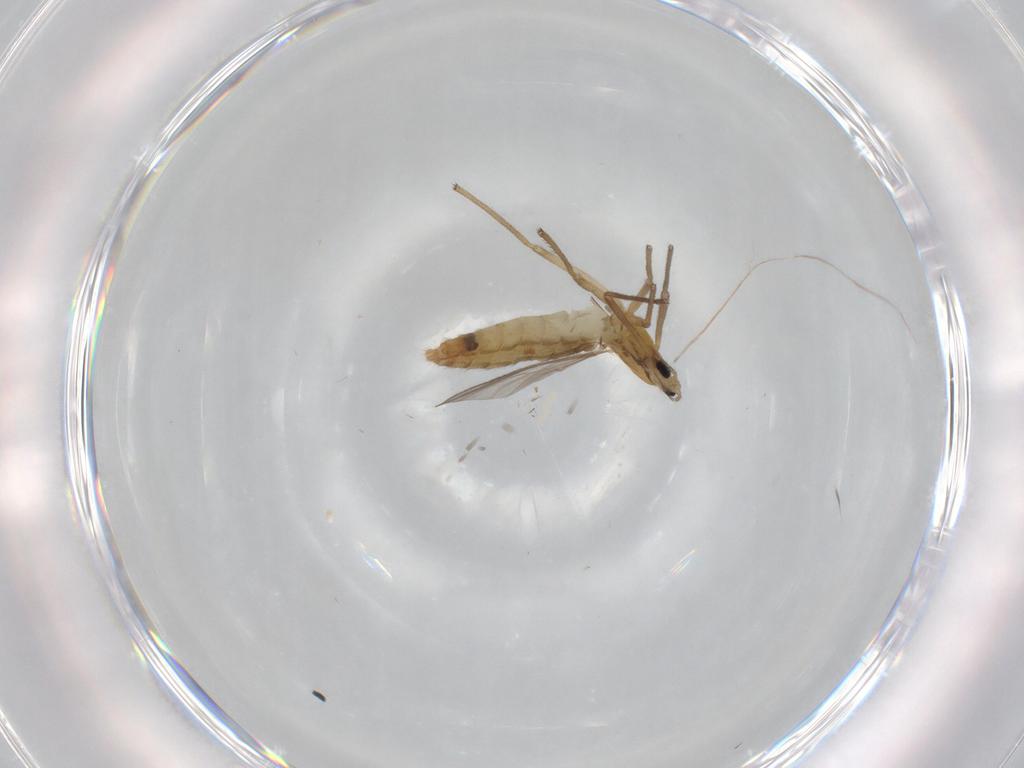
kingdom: Animalia
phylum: Arthropoda
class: Insecta
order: Diptera
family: Chironomidae
